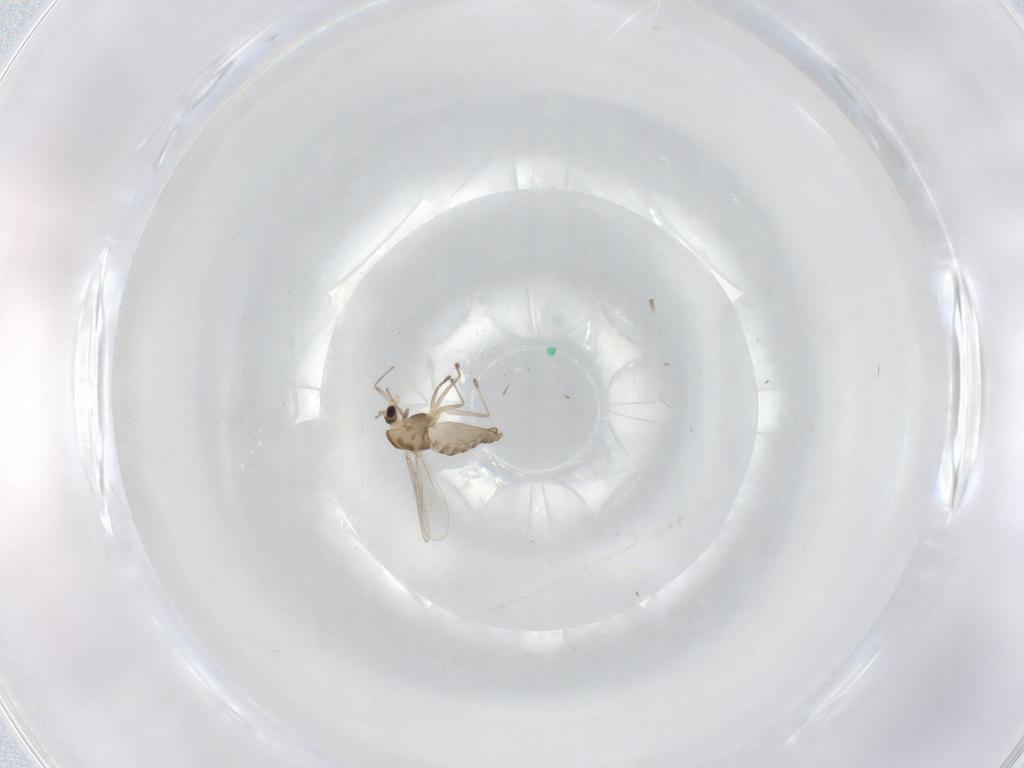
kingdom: Animalia
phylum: Arthropoda
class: Insecta
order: Diptera
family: Chironomidae
